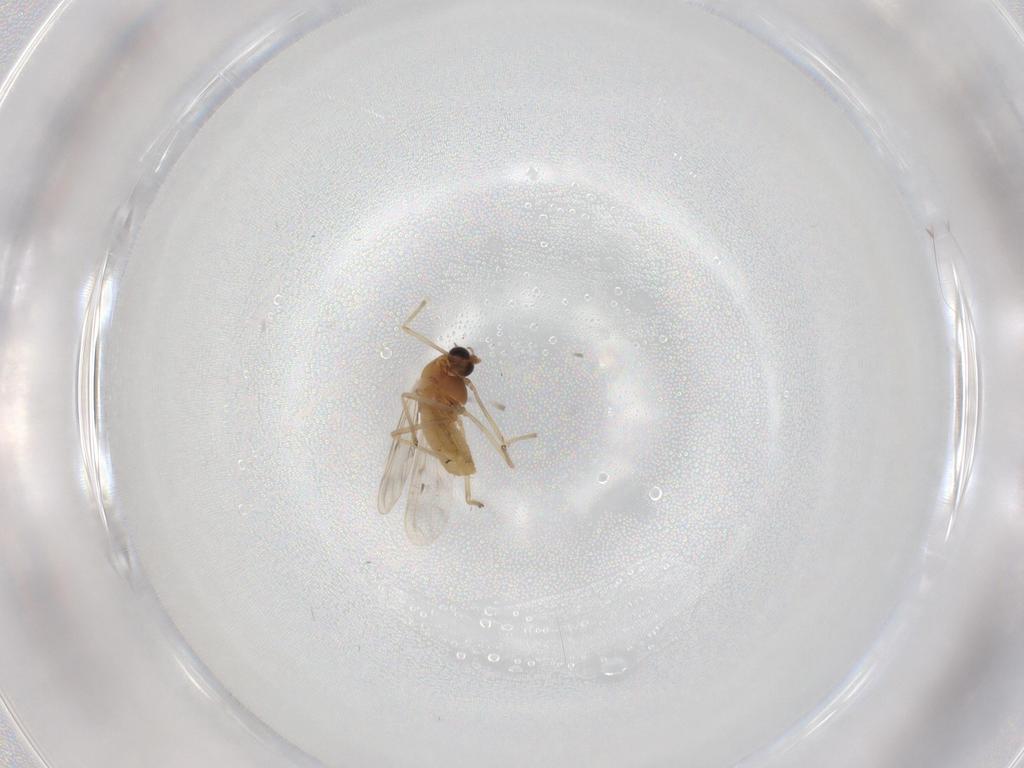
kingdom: Animalia
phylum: Arthropoda
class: Insecta
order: Diptera
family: Chironomidae
